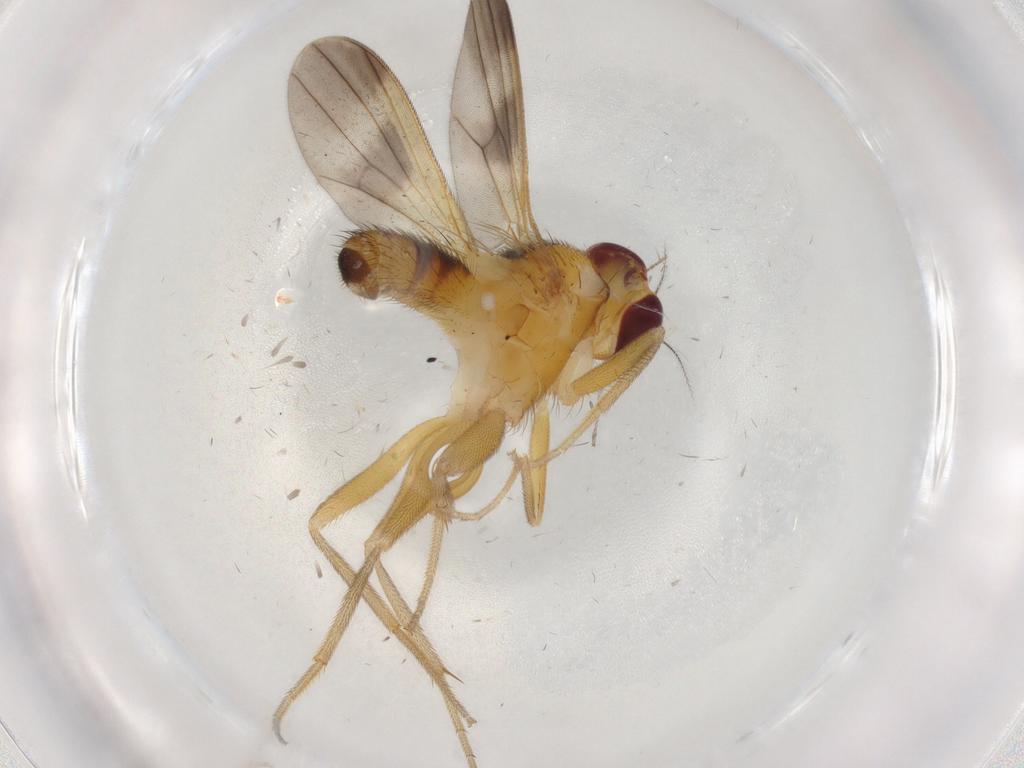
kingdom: Animalia
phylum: Arthropoda
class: Insecta
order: Diptera
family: Clusiidae
